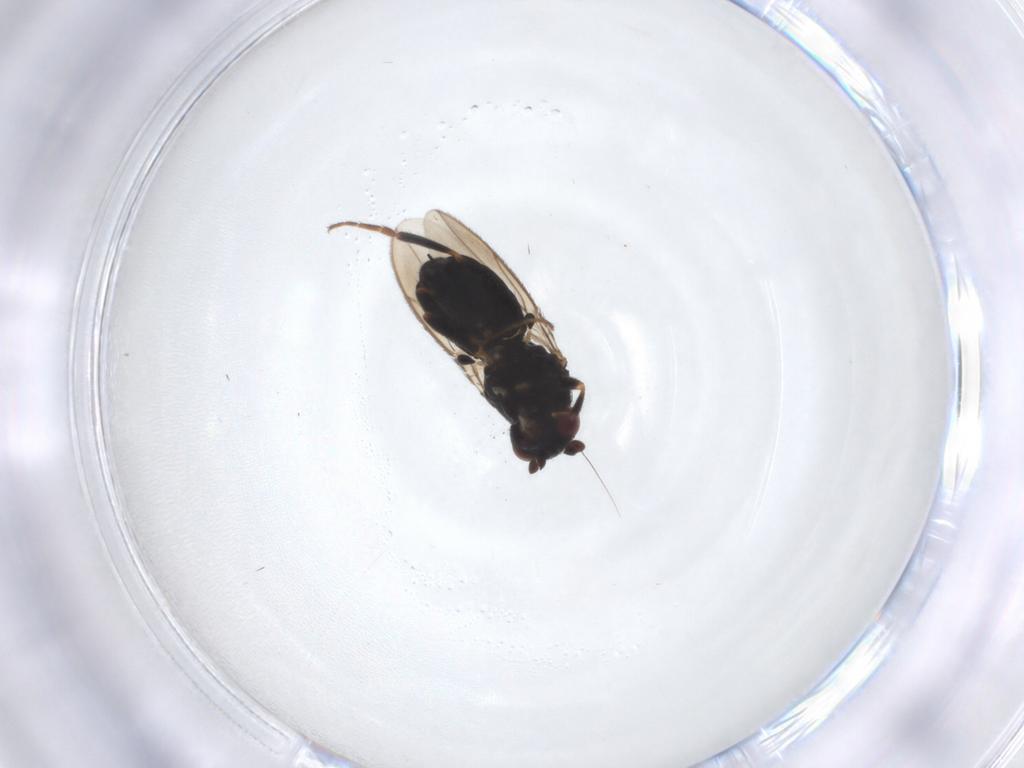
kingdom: Animalia
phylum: Arthropoda
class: Insecta
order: Diptera
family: Sphaeroceridae
